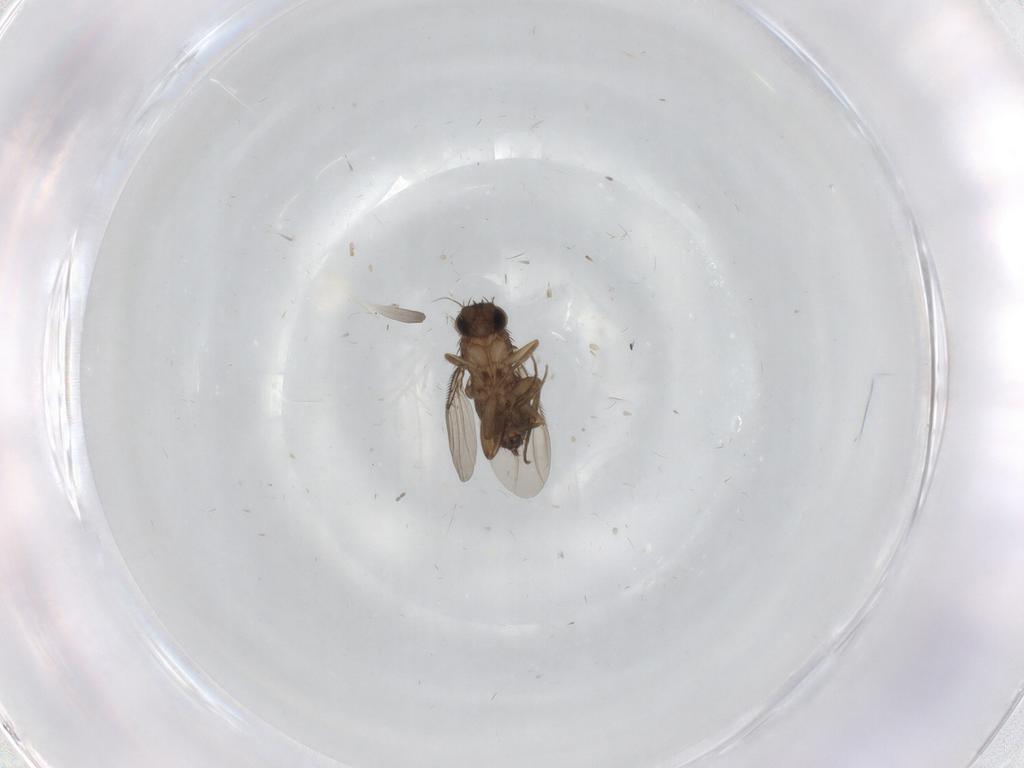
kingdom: Animalia
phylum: Arthropoda
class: Insecta
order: Diptera
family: Phoridae
